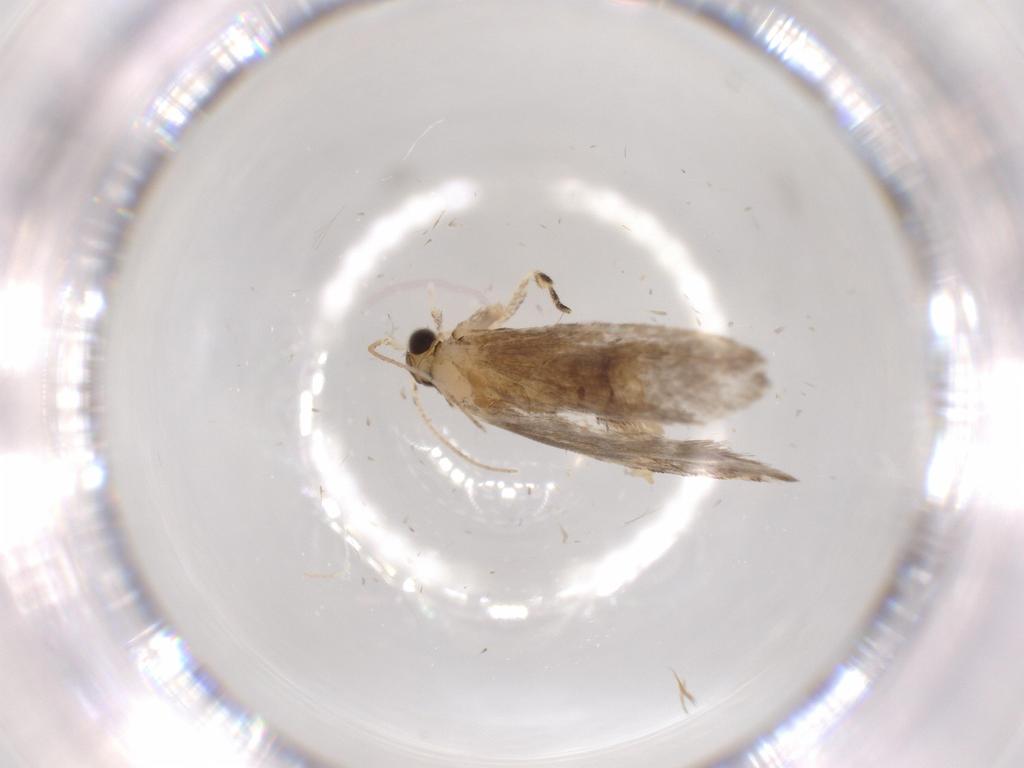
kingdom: Animalia
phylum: Arthropoda
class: Insecta
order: Lepidoptera
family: Tineidae
